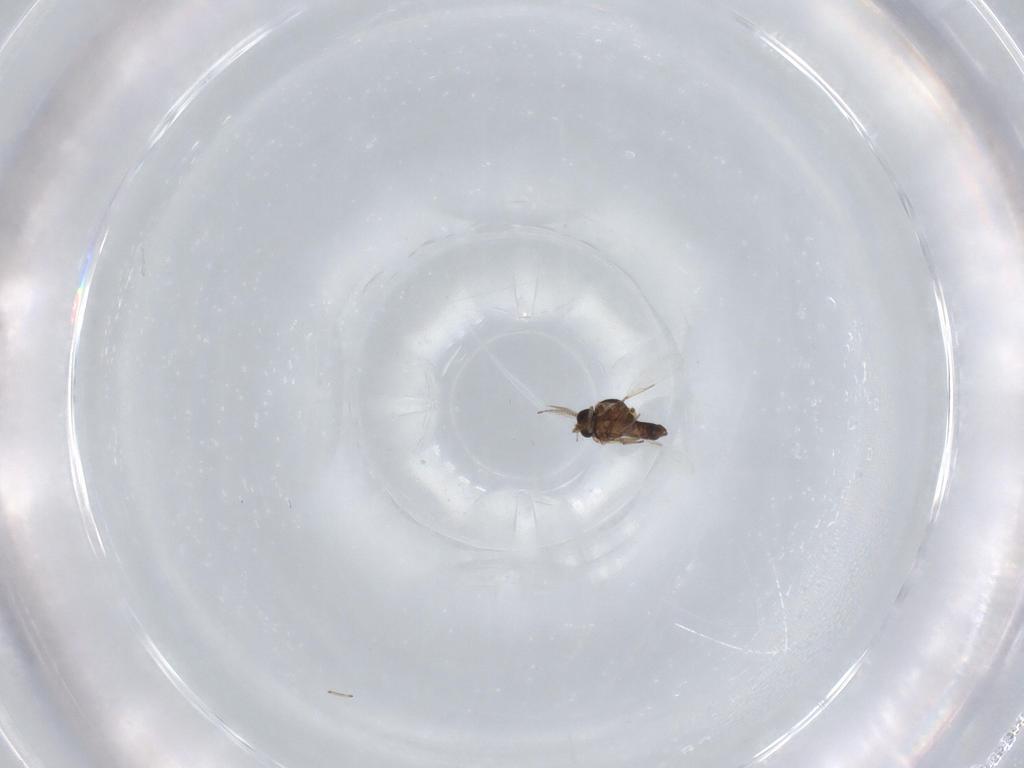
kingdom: Animalia
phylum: Arthropoda
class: Insecta
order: Diptera
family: Ceratopogonidae
